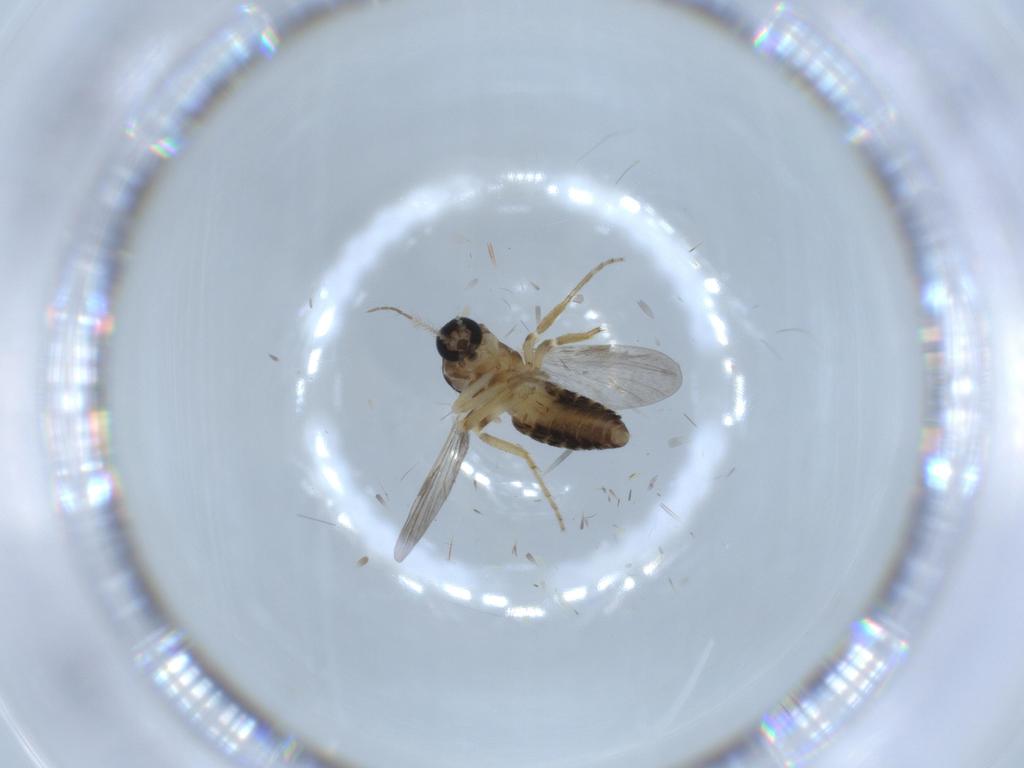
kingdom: Animalia
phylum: Arthropoda
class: Insecta
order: Diptera
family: Ceratopogonidae
